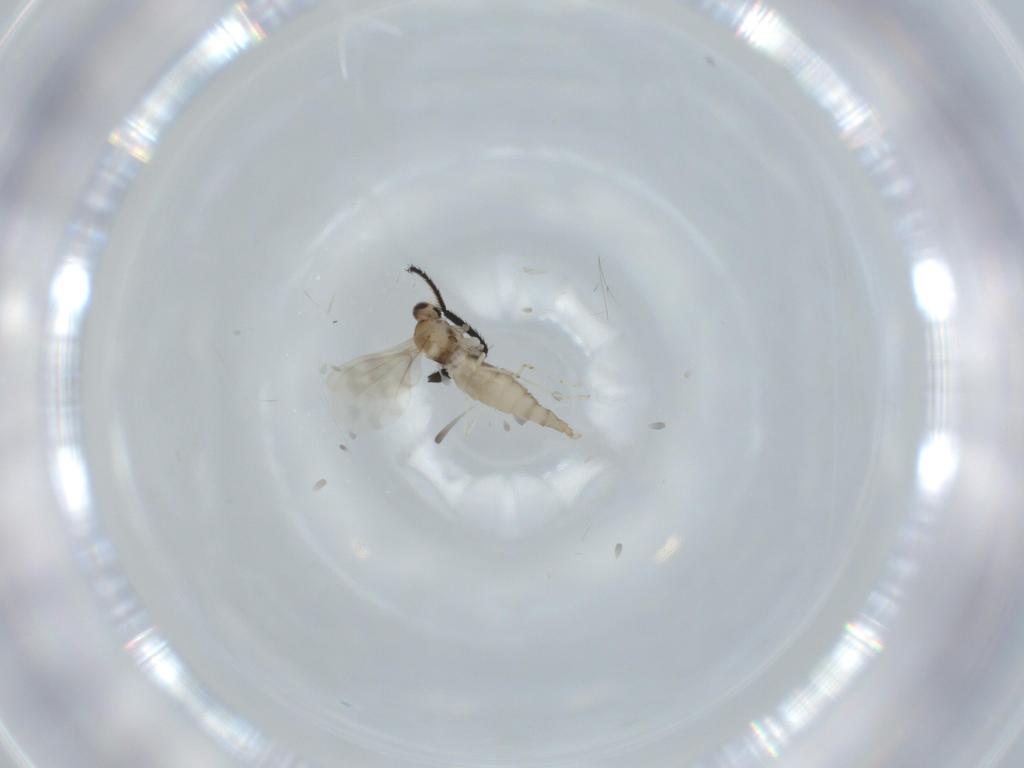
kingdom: Animalia
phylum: Arthropoda
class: Insecta
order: Diptera
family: Cecidomyiidae
